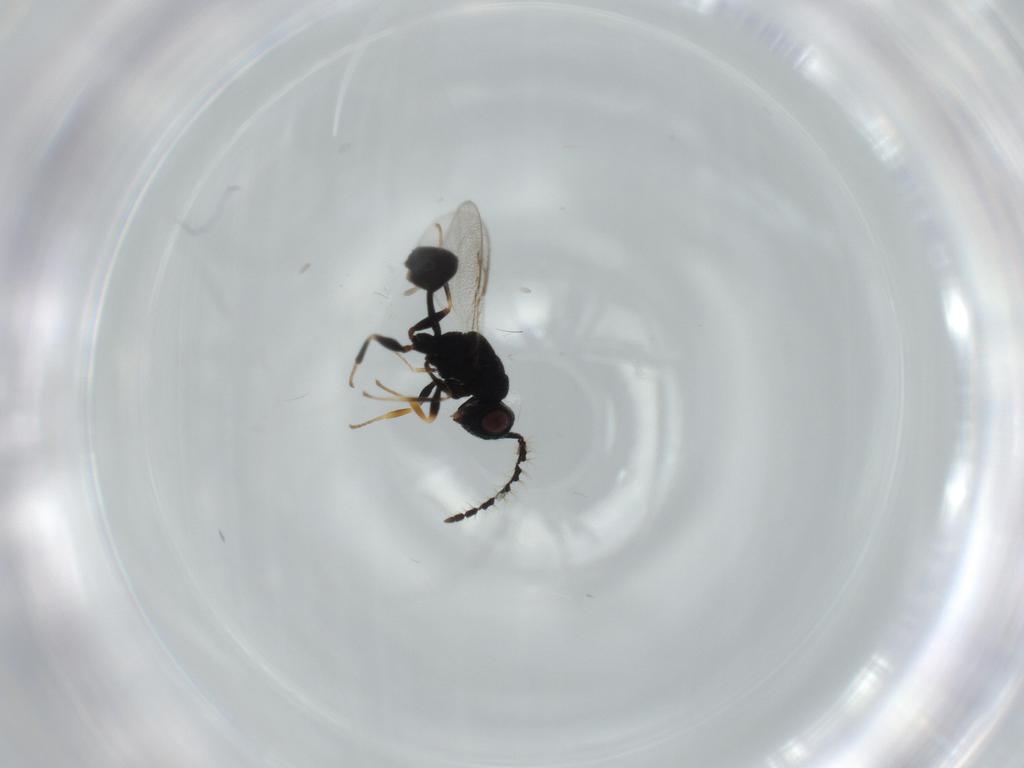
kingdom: Animalia
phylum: Arthropoda
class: Insecta
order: Hymenoptera
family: Eurytomidae
